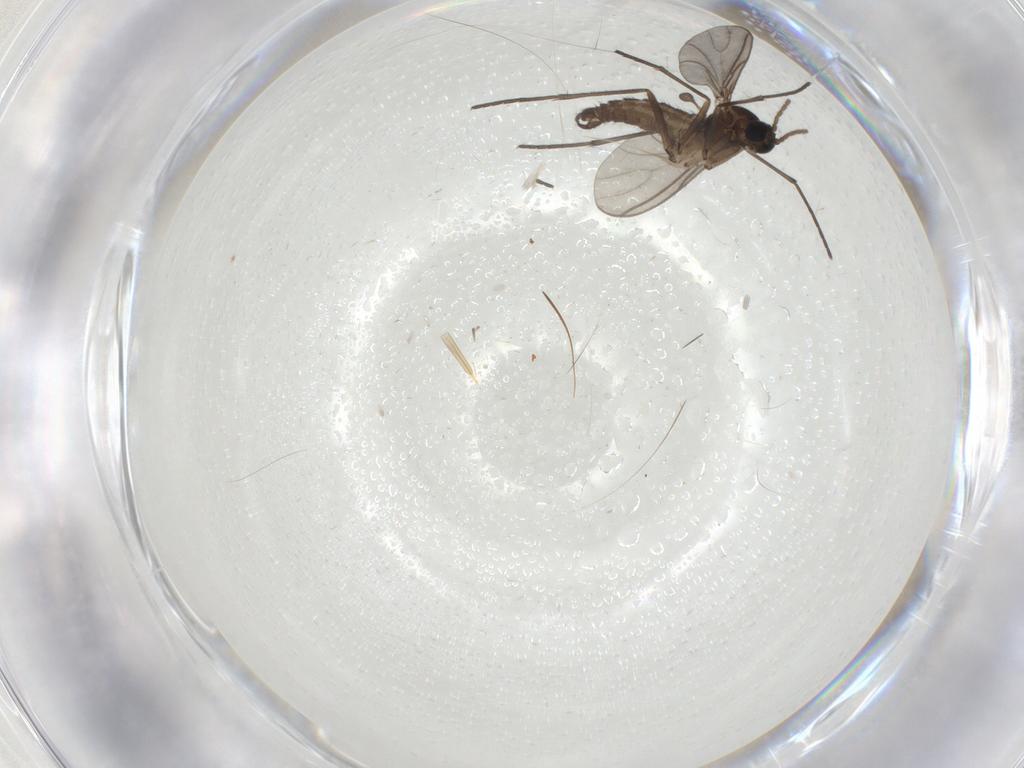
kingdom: Animalia
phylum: Arthropoda
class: Insecta
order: Diptera
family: Sciaridae
